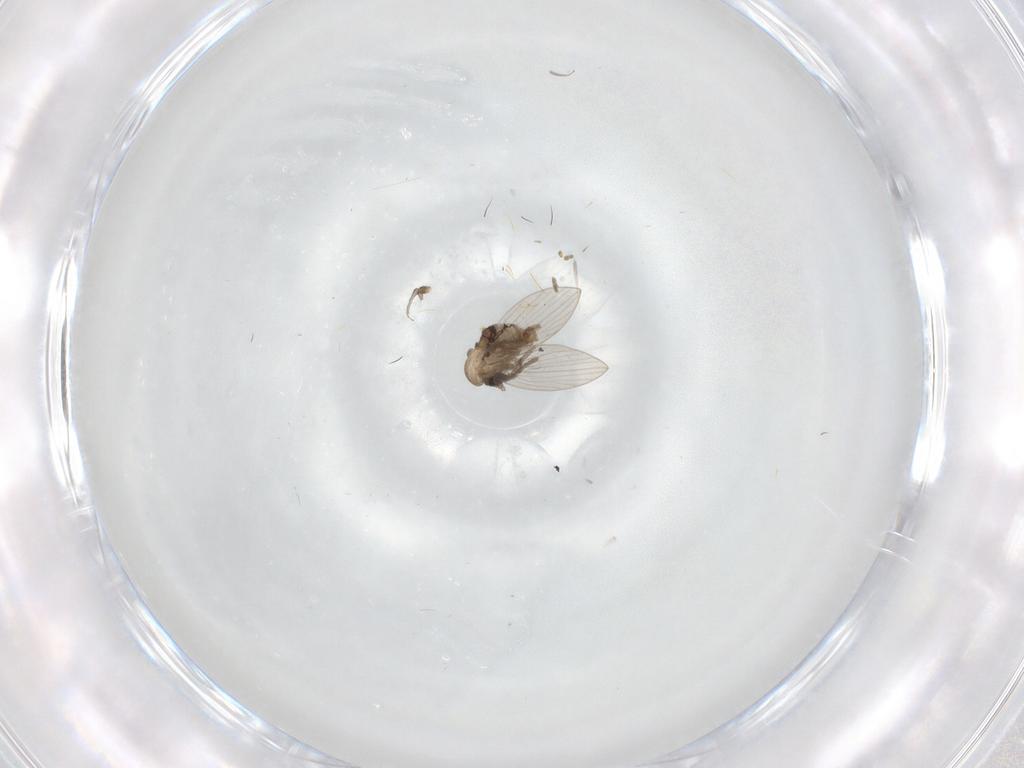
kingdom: Animalia
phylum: Arthropoda
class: Insecta
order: Diptera
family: Psychodidae
